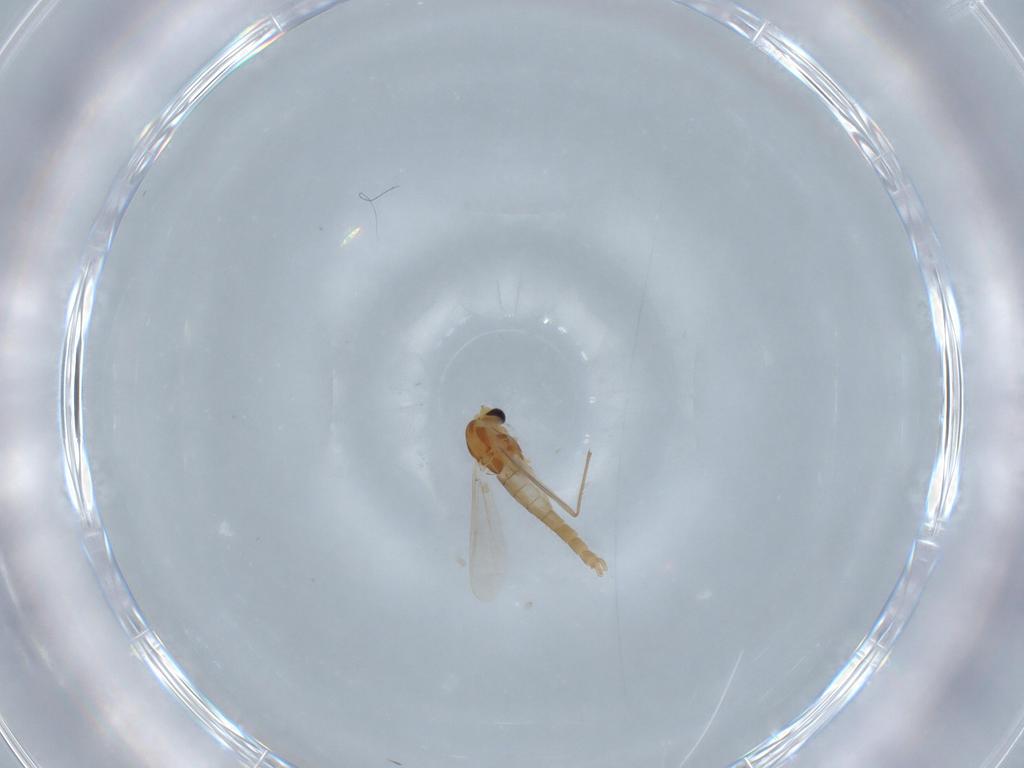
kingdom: Animalia
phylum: Arthropoda
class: Insecta
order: Diptera
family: Chironomidae
